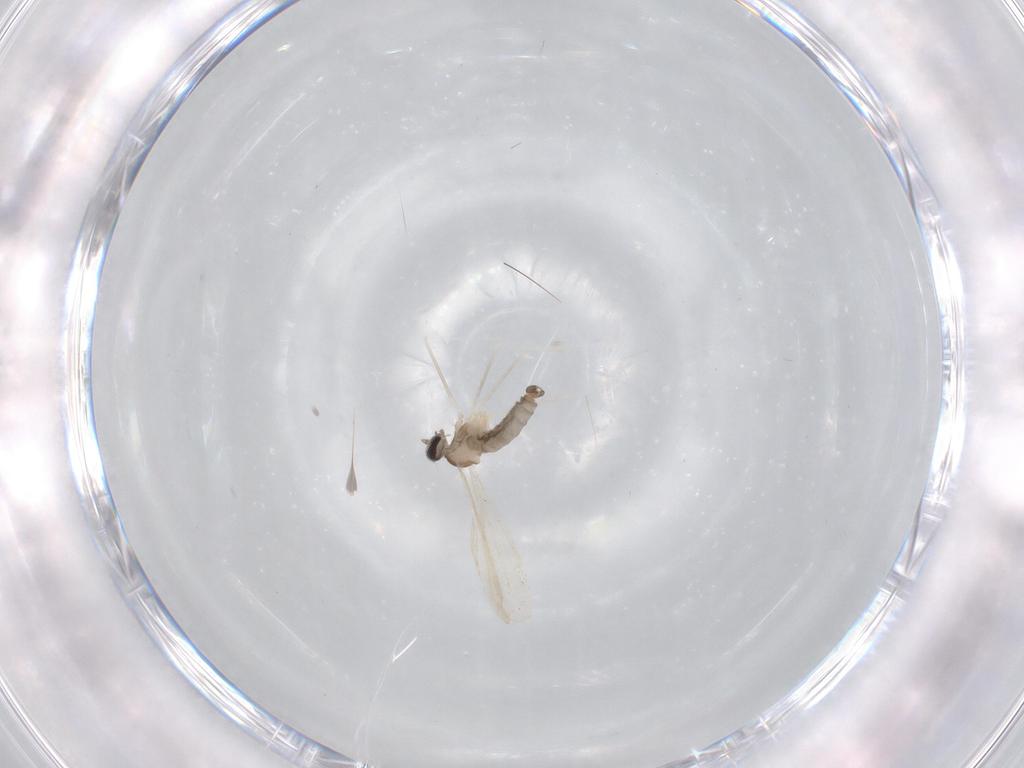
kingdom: Animalia
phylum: Arthropoda
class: Insecta
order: Diptera
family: Cecidomyiidae
